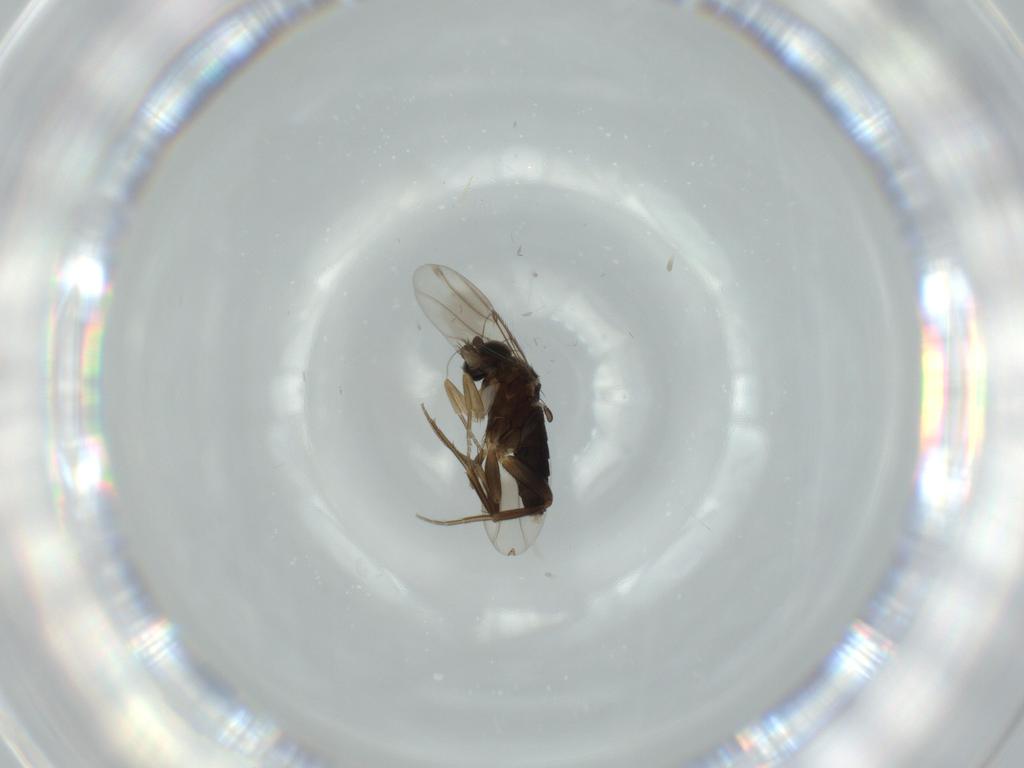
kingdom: Animalia
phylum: Arthropoda
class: Insecta
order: Diptera
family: Phoridae
